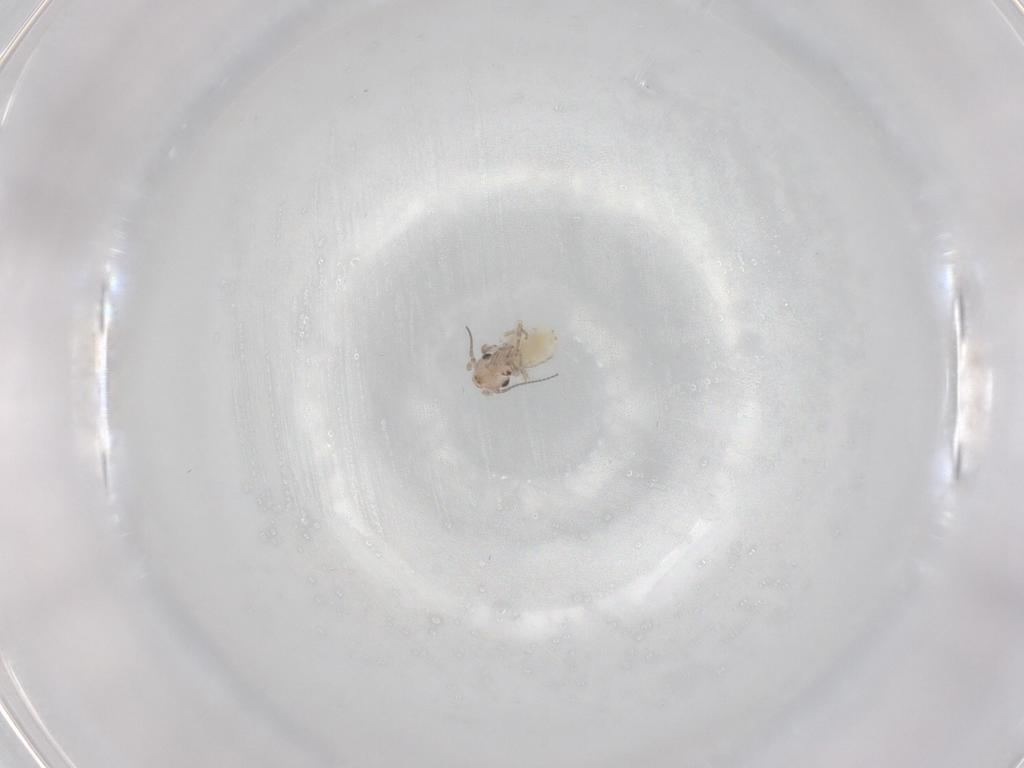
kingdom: Animalia
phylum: Arthropoda
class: Insecta
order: Psocodea
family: Lepidopsocidae
